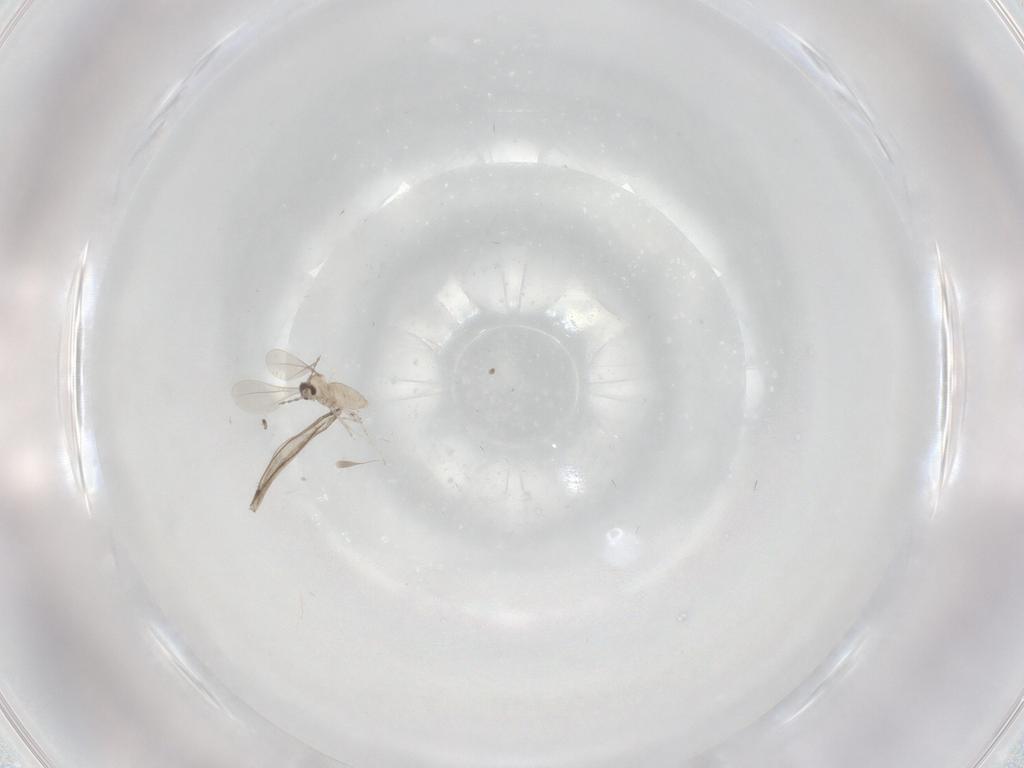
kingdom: Animalia
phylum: Arthropoda
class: Insecta
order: Diptera
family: Cecidomyiidae
